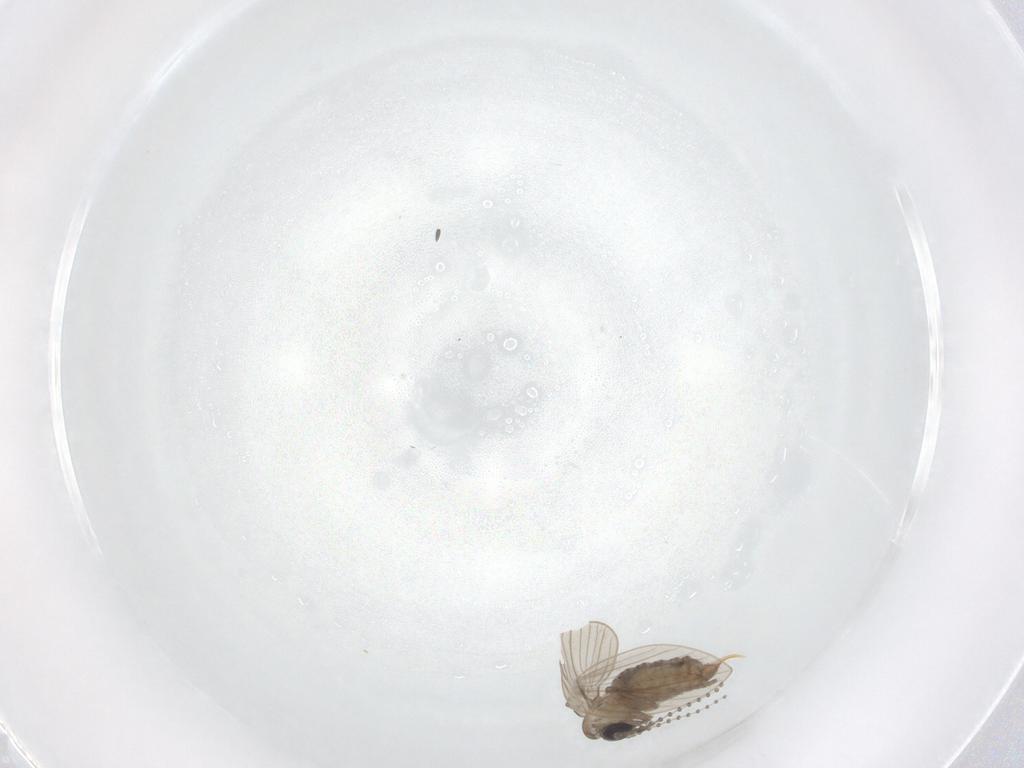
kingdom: Animalia
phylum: Arthropoda
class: Insecta
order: Diptera
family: Psychodidae
